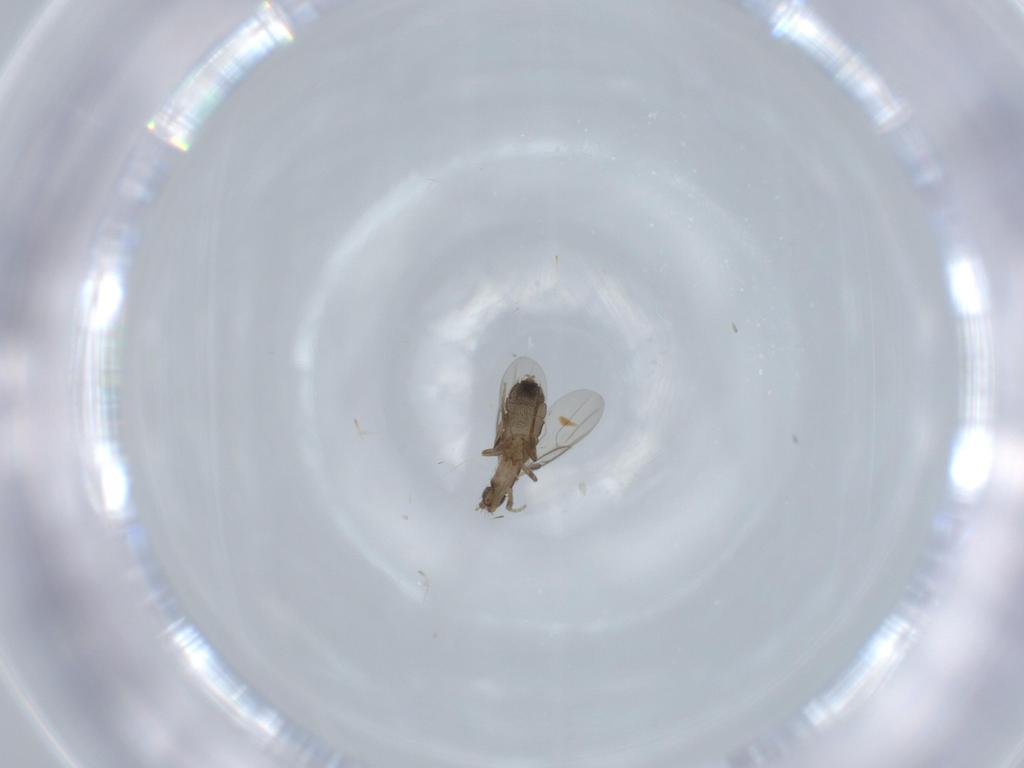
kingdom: Animalia
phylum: Arthropoda
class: Insecta
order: Diptera
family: Phoridae
